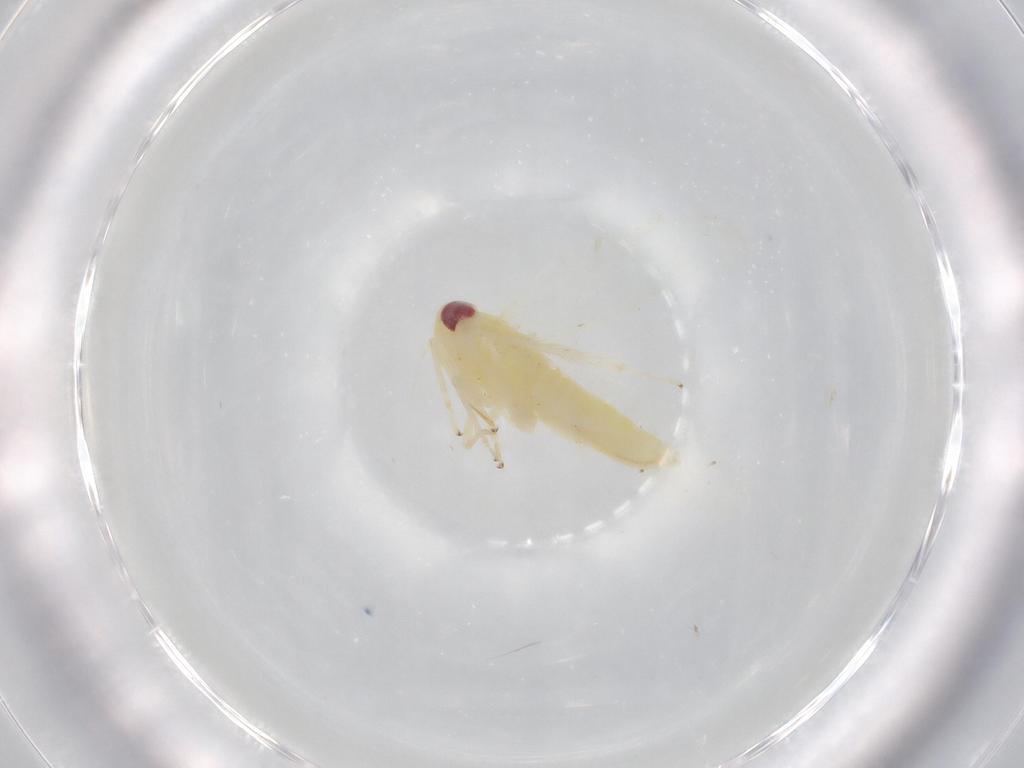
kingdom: Animalia
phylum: Arthropoda
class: Insecta
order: Hemiptera
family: Cicadellidae
